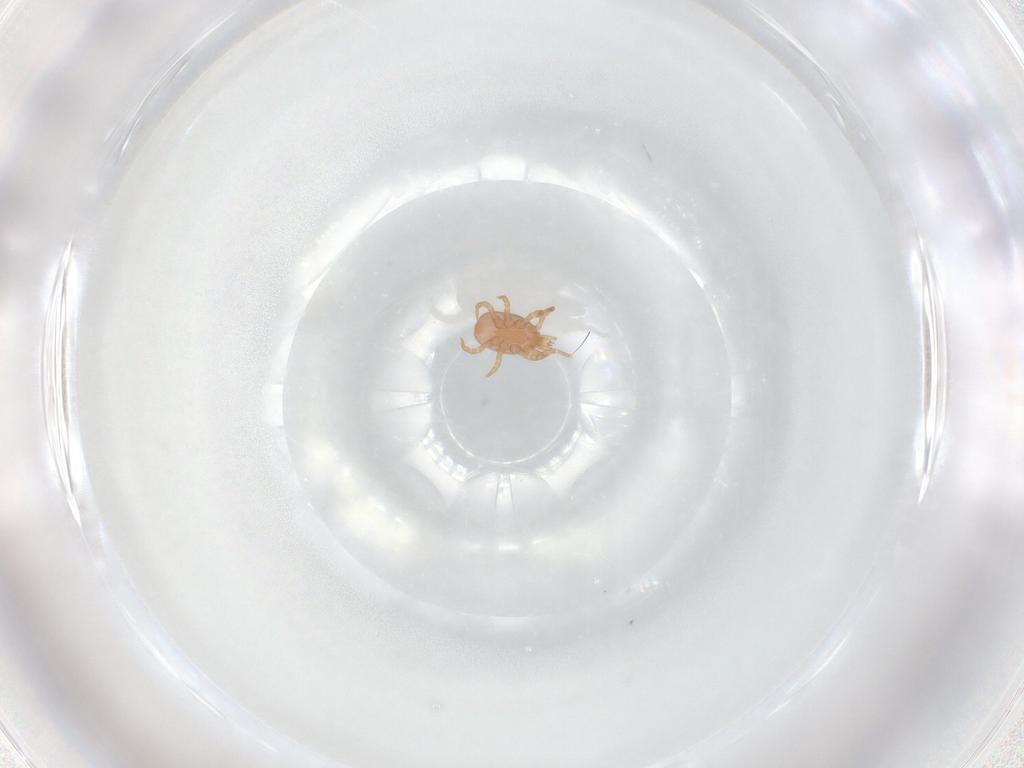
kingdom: Animalia
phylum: Arthropoda
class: Arachnida
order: Mesostigmata
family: Eviphididae
